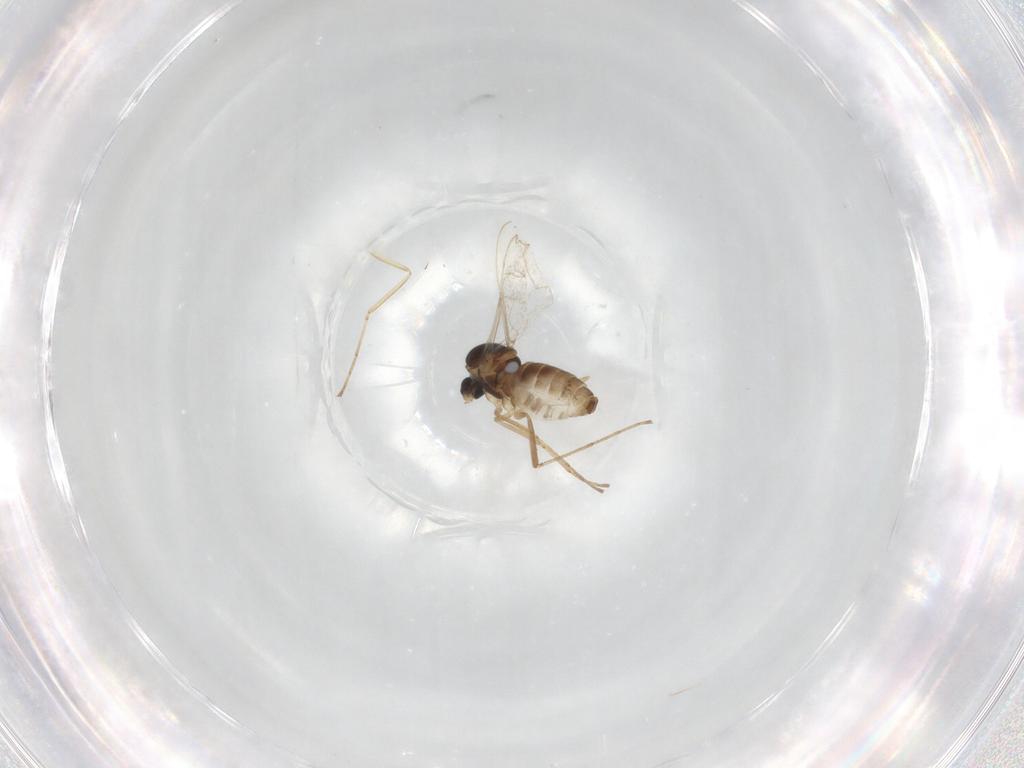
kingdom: Animalia
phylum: Arthropoda
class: Insecta
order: Diptera
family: Cecidomyiidae
